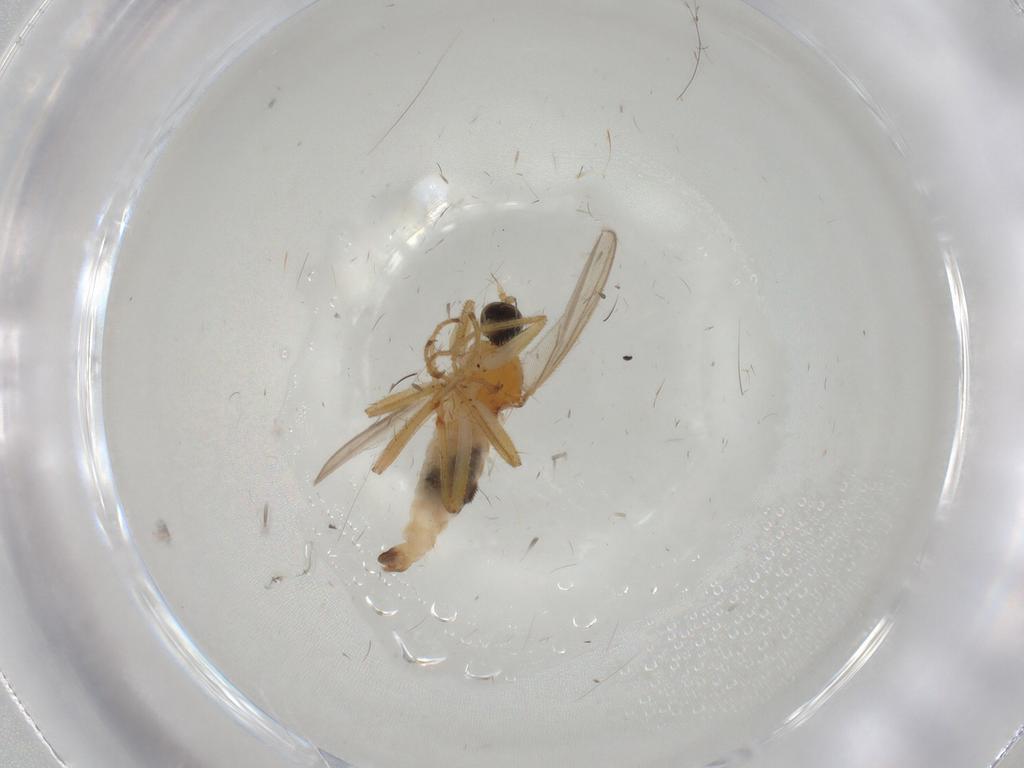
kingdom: Animalia
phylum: Arthropoda
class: Insecta
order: Diptera
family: Hybotidae
